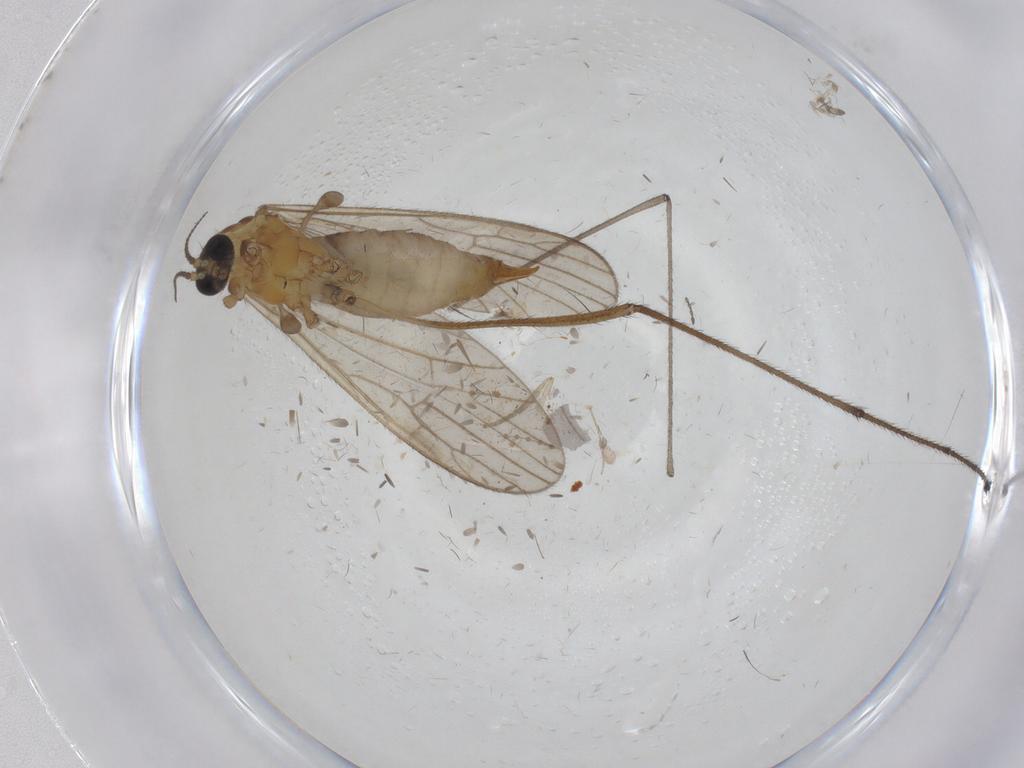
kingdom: Animalia
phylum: Arthropoda
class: Insecta
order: Diptera
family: Limoniidae
